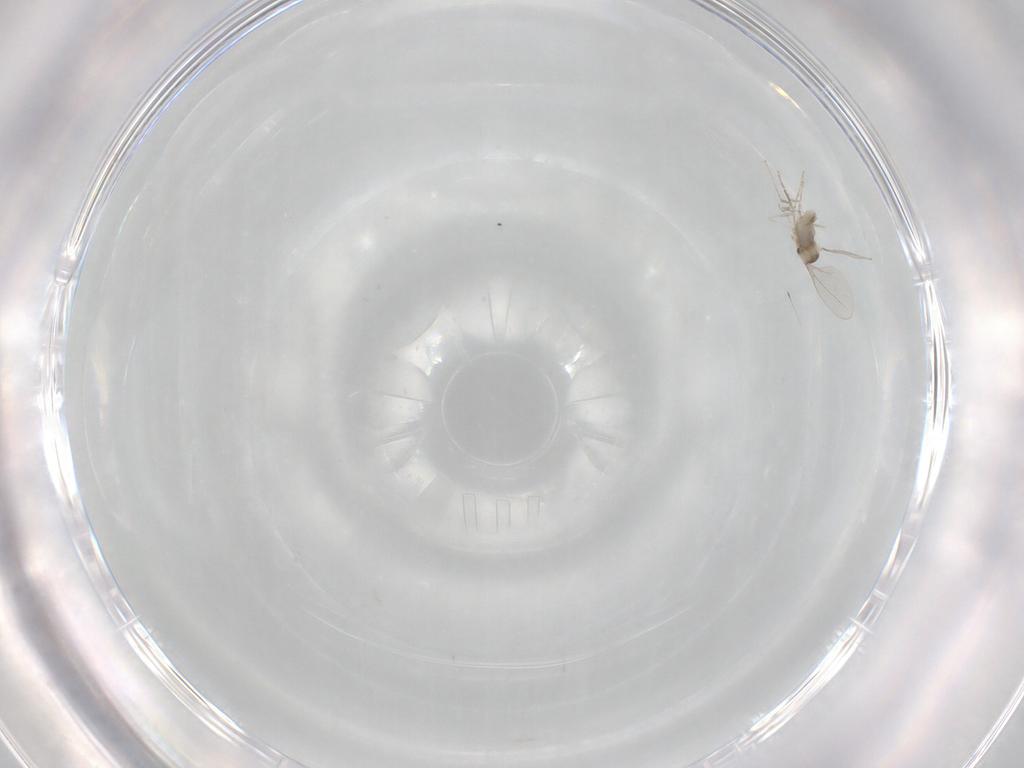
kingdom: Animalia
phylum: Arthropoda
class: Insecta
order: Diptera
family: Cecidomyiidae
